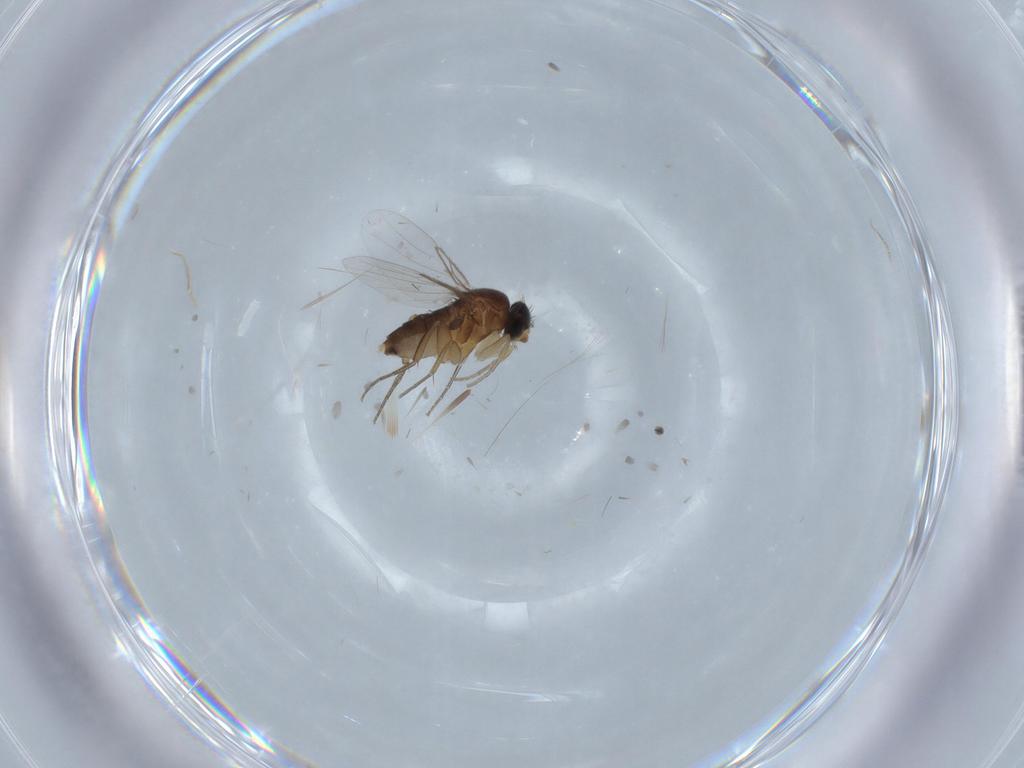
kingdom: Animalia
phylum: Arthropoda
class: Insecta
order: Diptera
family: Phoridae
